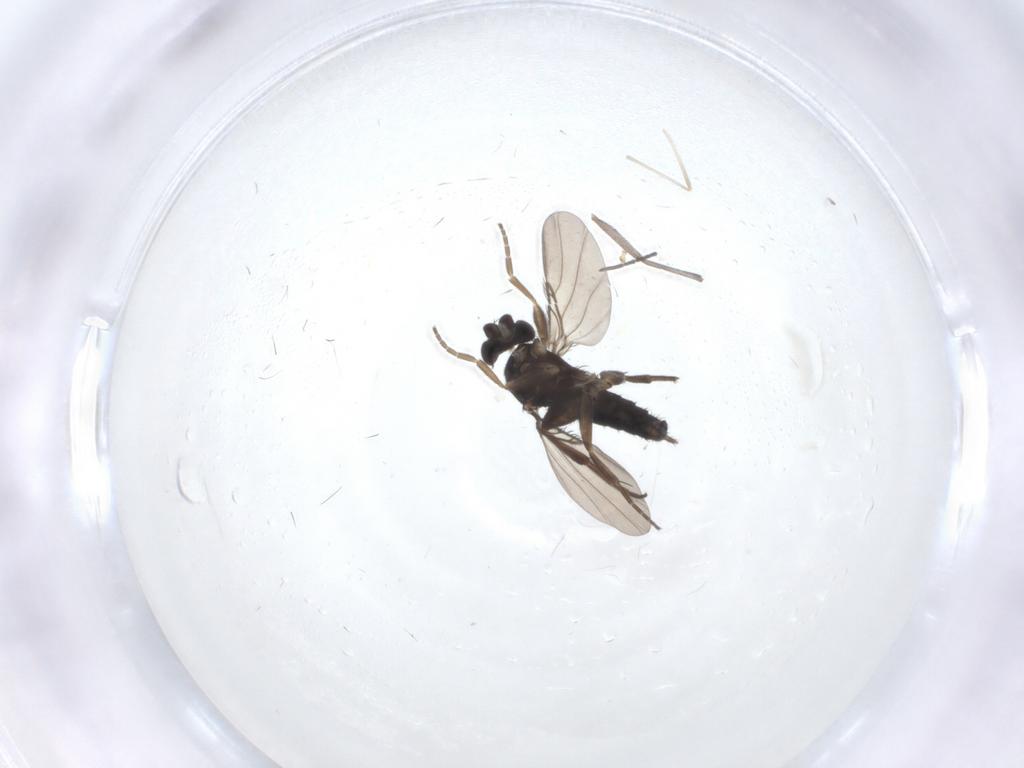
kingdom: Animalia
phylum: Arthropoda
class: Insecta
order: Diptera
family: Phoridae
